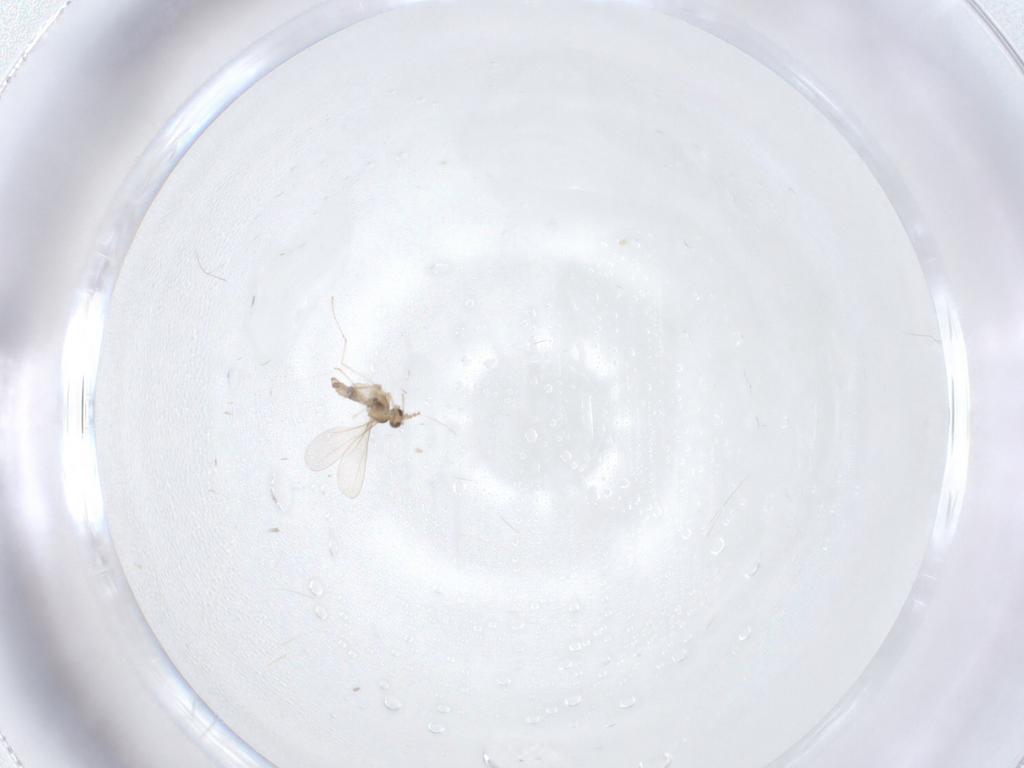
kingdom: Animalia
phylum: Arthropoda
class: Insecta
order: Diptera
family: Cecidomyiidae
